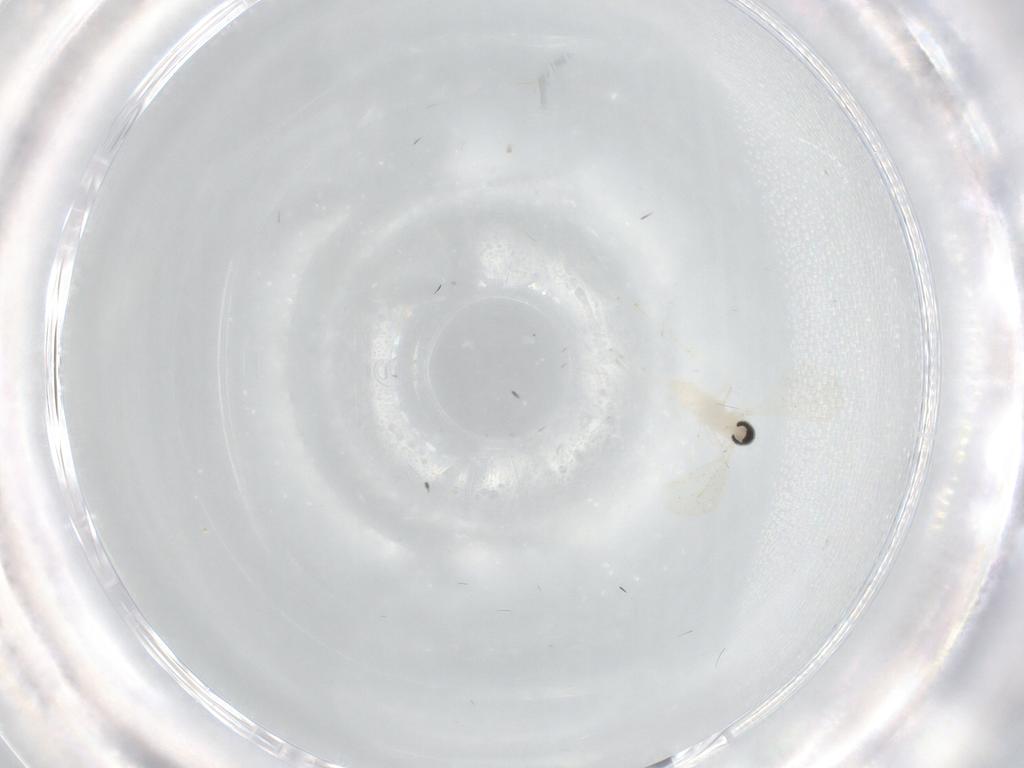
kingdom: Animalia
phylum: Arthropoda
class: Insecta
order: Diptera
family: Cecidomyiidae
